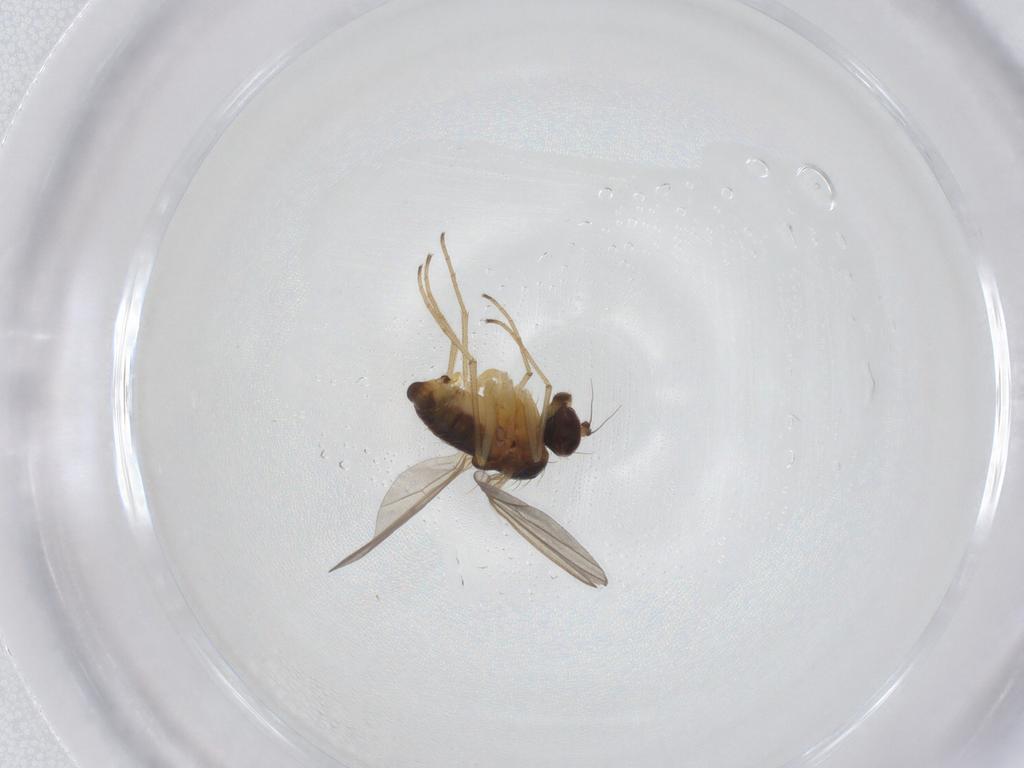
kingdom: Animalia
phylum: Arthropoda
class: Insecta
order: Diptera
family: Dolichopodidae
